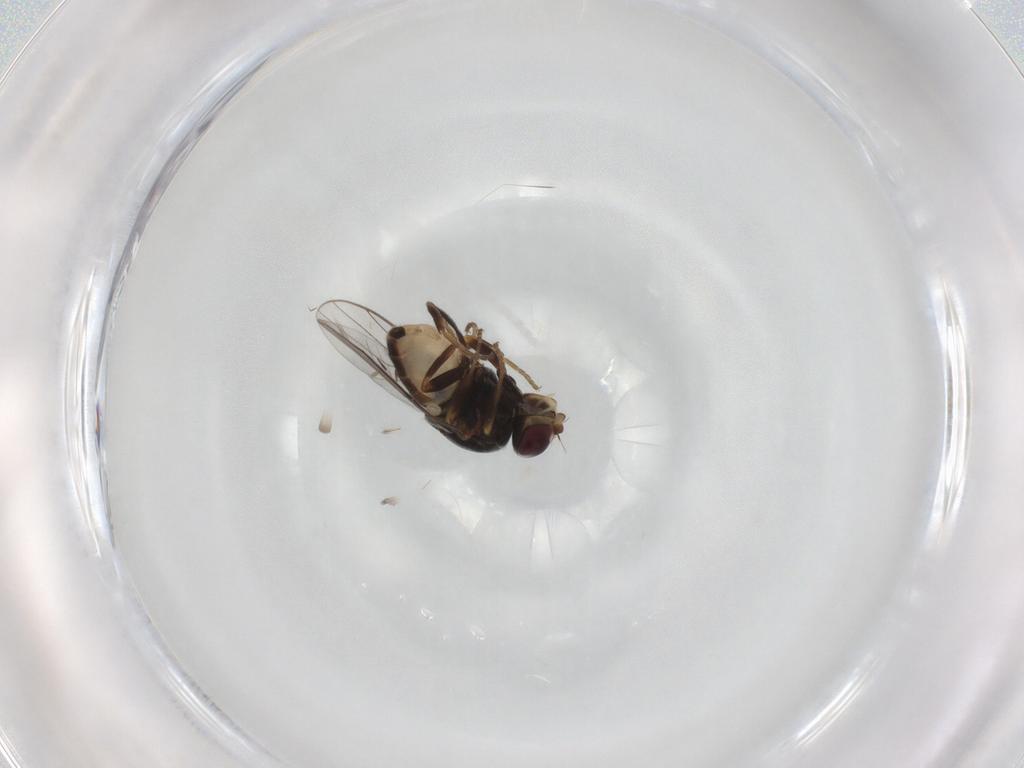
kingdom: Animalia
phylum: Arthropoda
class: Insecta
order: Diptera
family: Chloropidae
